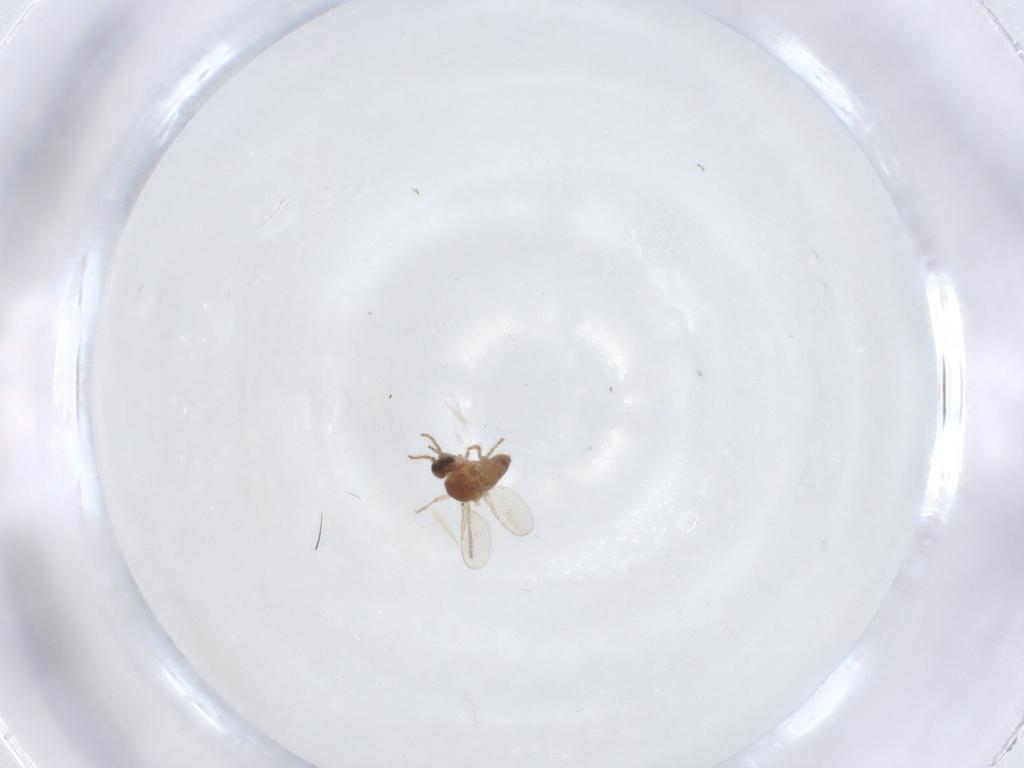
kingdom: Animalia
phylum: Arthropoda
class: Insecta
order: Diptera
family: Ceratopogonidae
